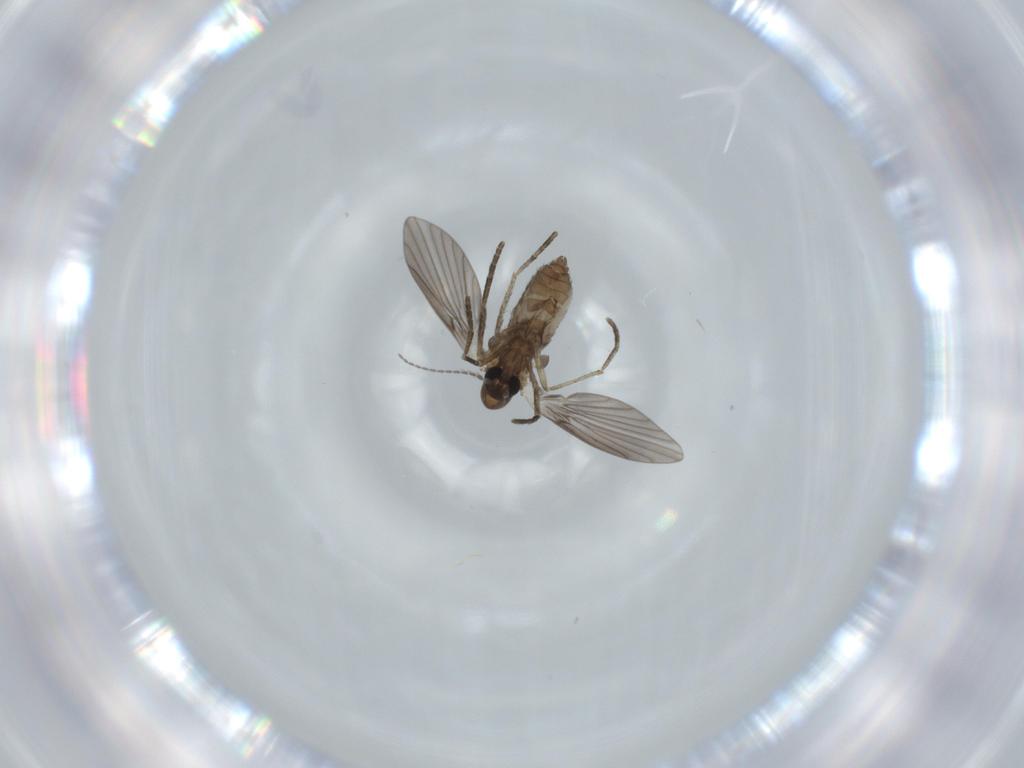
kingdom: Animalia
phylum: Arthropoda
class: Insecta
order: Diptera
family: Psychodidae
